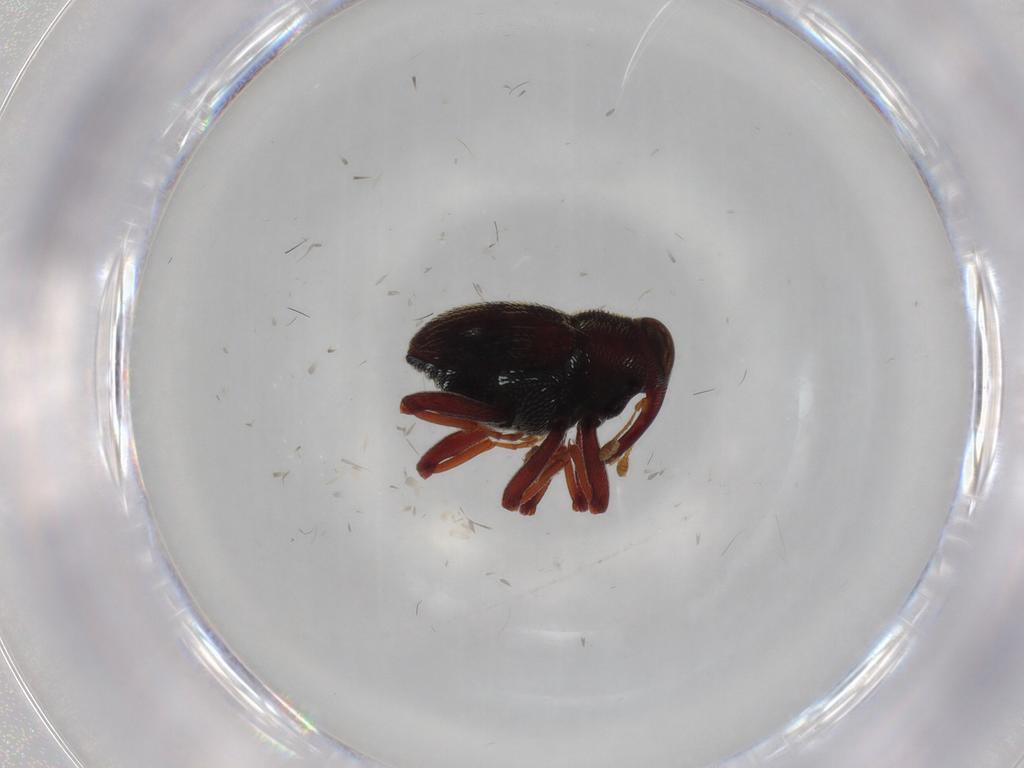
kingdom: Animalia
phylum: Arthropoda
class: Insecta
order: Coleoptera
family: Curculionidae
